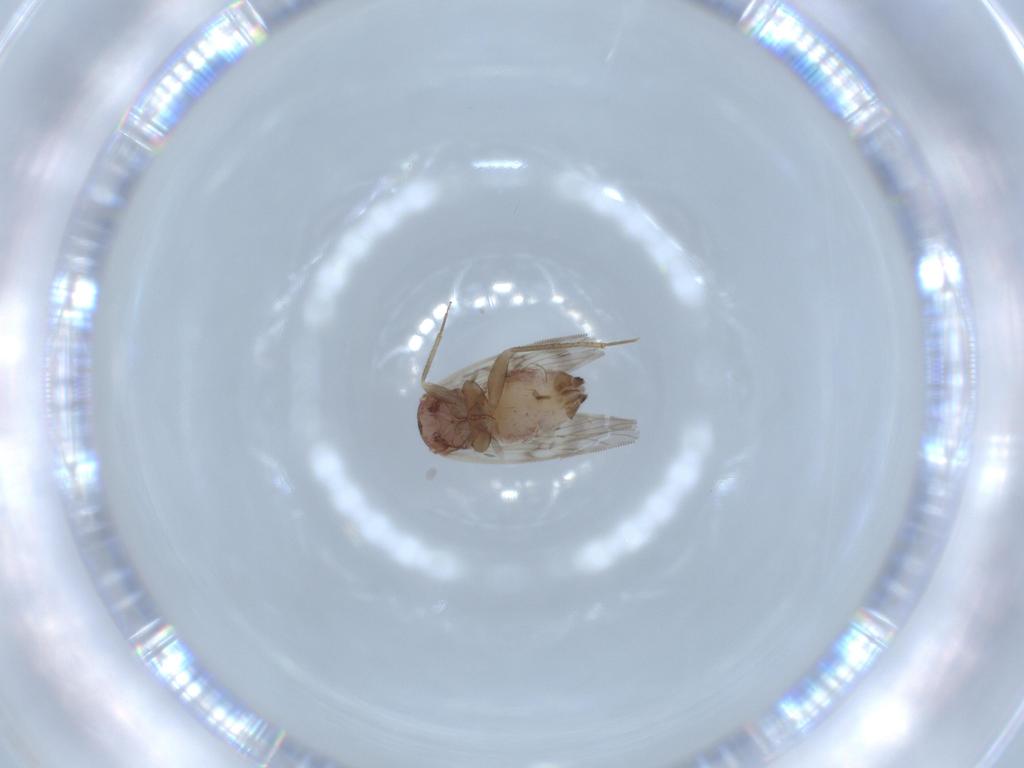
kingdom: Animalia
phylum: Arthropoda
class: Insecta
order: Psocodea
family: Lepidopsocidae
